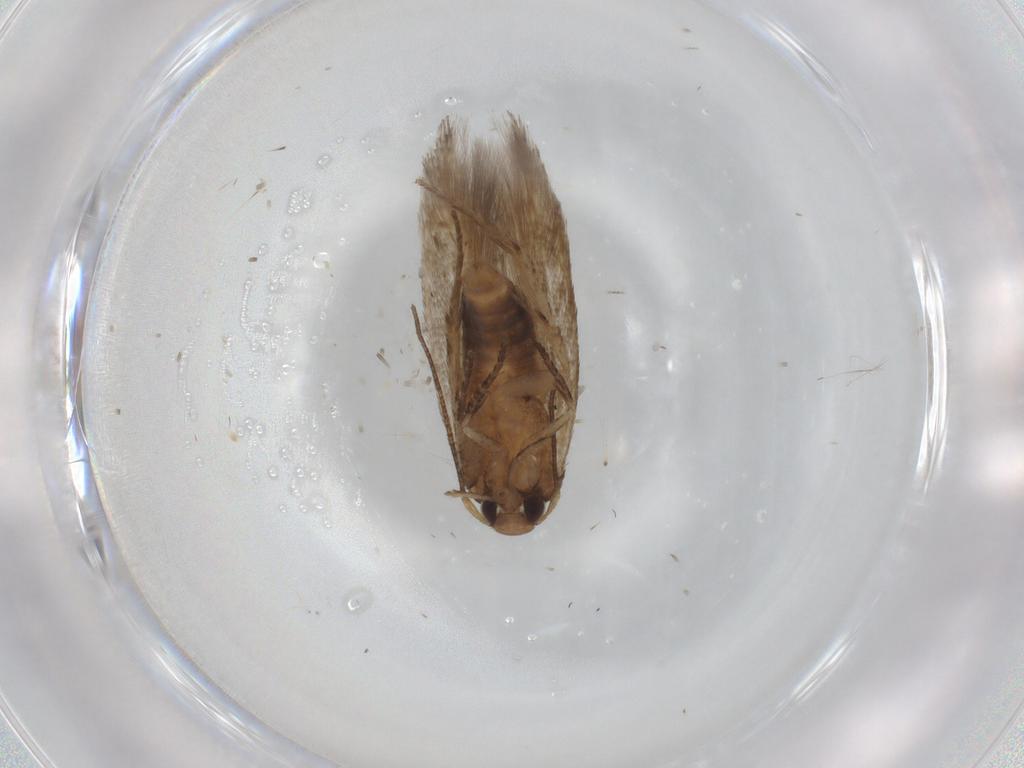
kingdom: Animalia
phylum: Arthropoda
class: Insecta
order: Lepidoptera
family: Cosmopterigidae
